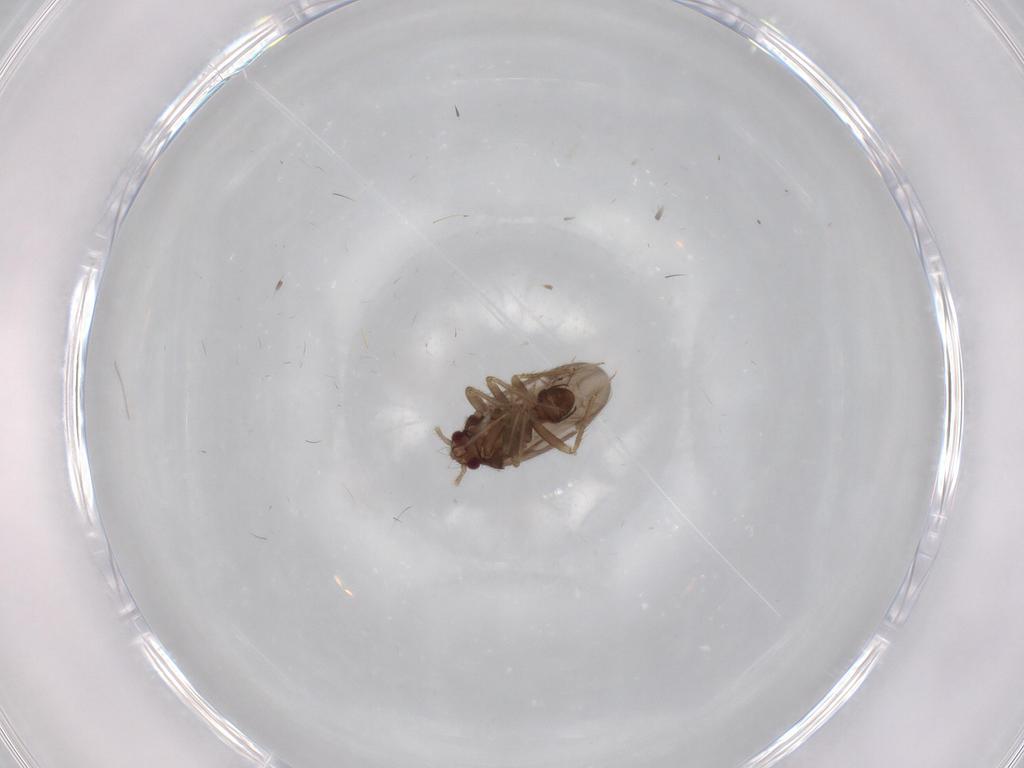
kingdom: Animalia
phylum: Arthropoda
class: Insecta
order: Hemiptera
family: Ceratocombidae
